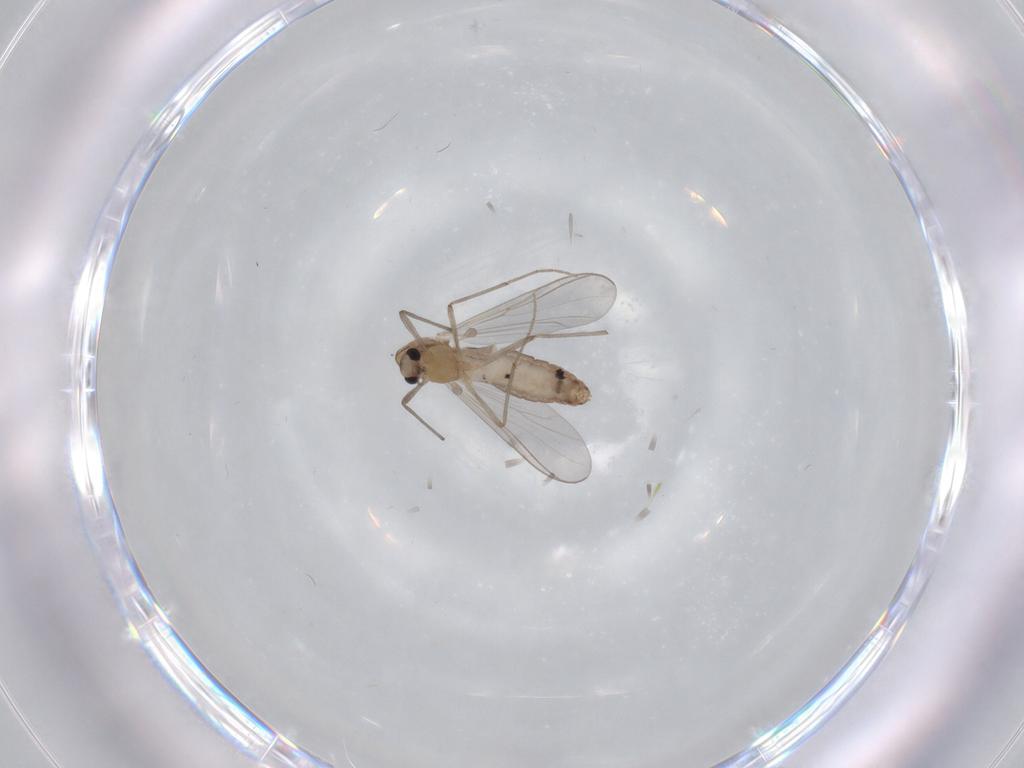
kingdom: Animalia
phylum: Arthropoda
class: Insecta
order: Diptera
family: Chironomidae
